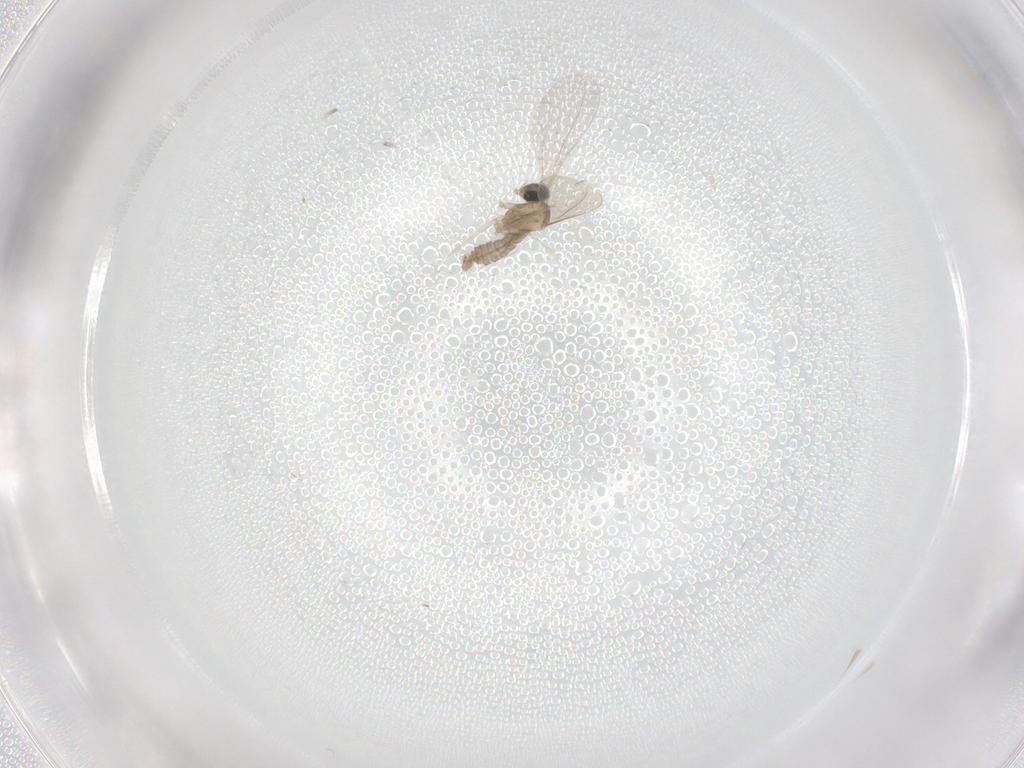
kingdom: Animalia
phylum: Arthropoda
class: Insecta
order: Diptera
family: Cecidomyiidae
